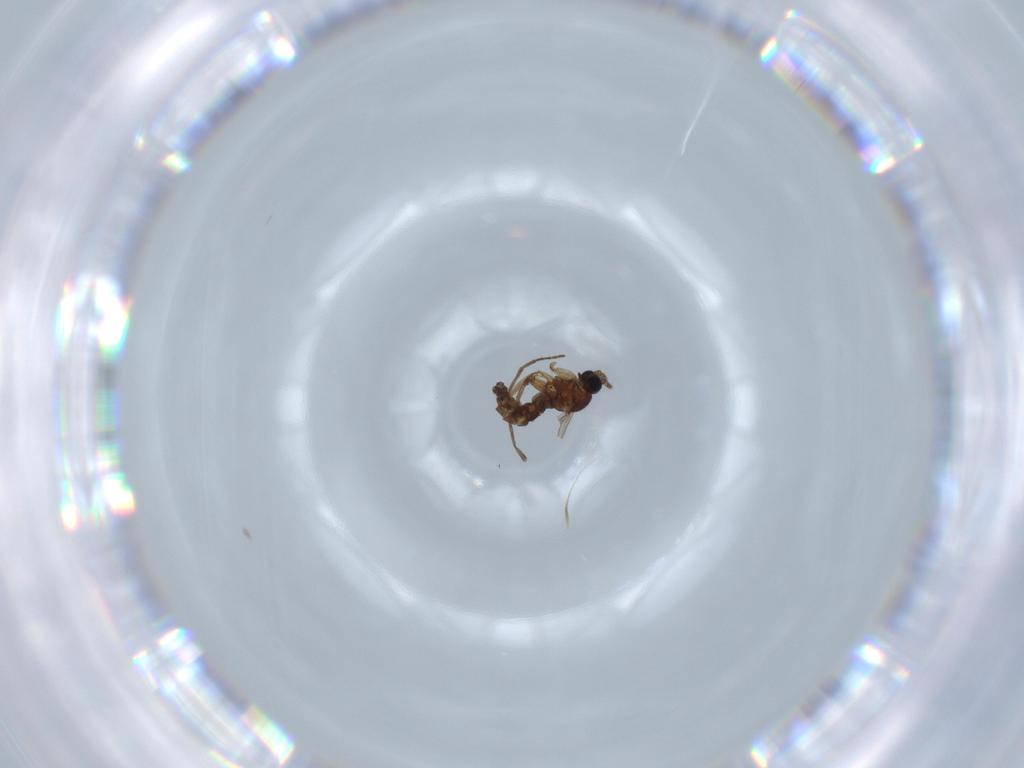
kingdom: Animalia
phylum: Arthropoda
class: Insecta
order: Diptera
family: Sciaridae
